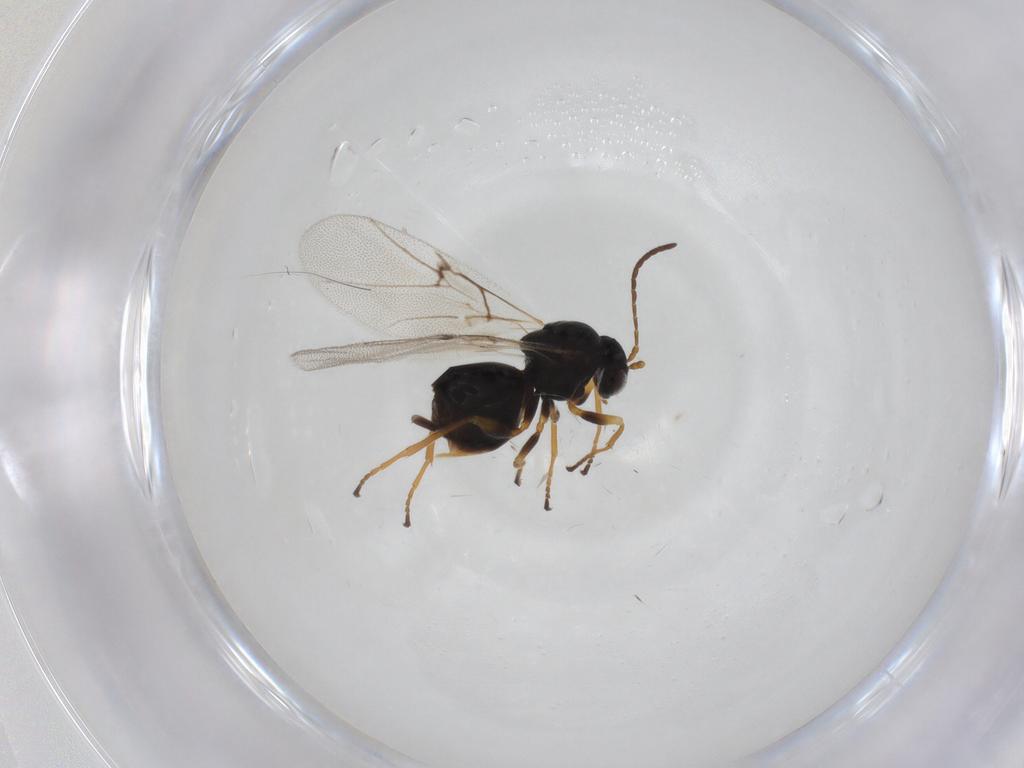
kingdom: Animalia
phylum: Arthropoda
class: Insecta
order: Hymenoptera
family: Cynipidae
